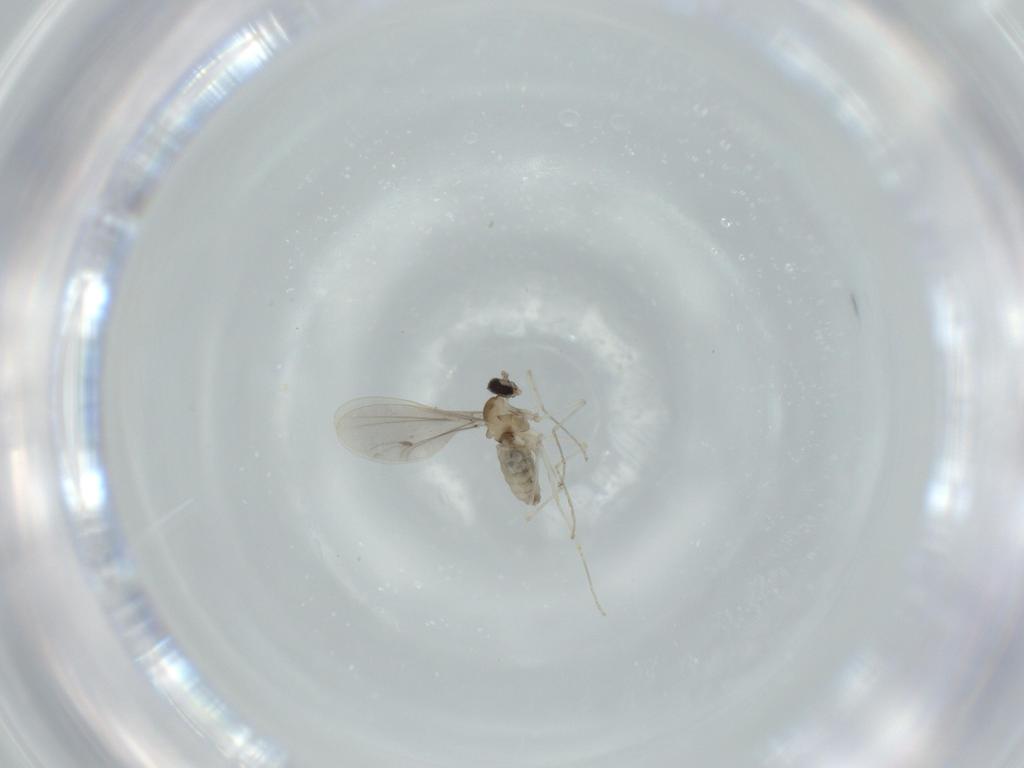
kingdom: Animalia
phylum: Arthropoda
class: Insecta
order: Diptera
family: Cecidomyiidae
